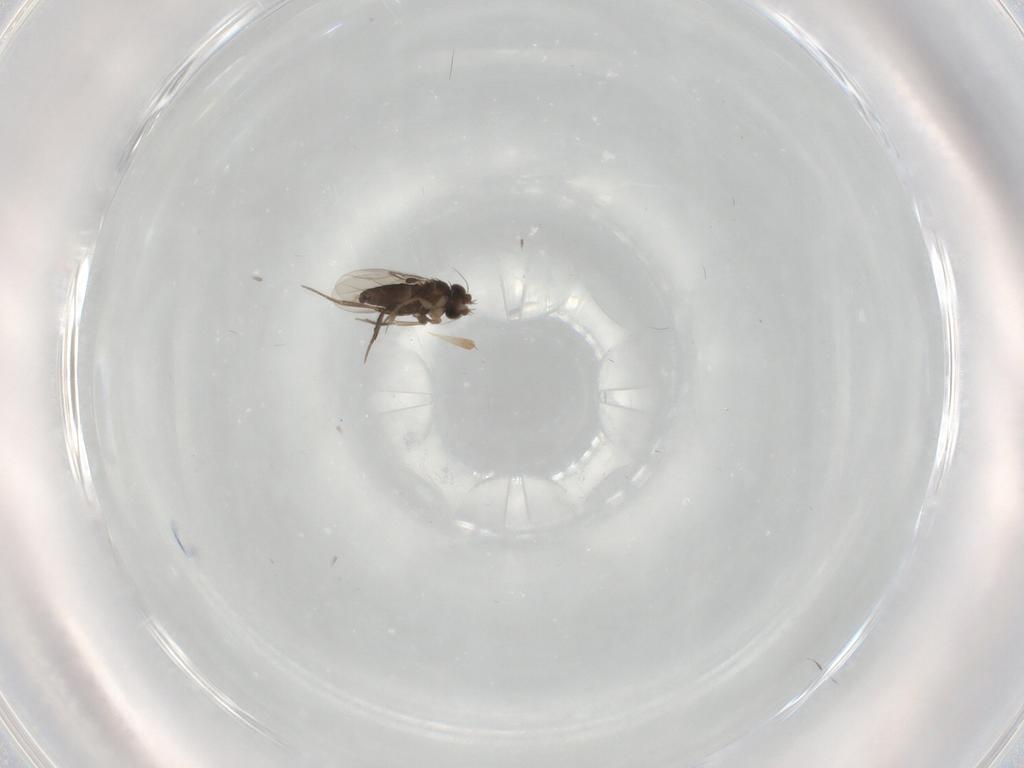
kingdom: Animalia
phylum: Arthropoda
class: Insecta
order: Diptera
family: Phoridae
